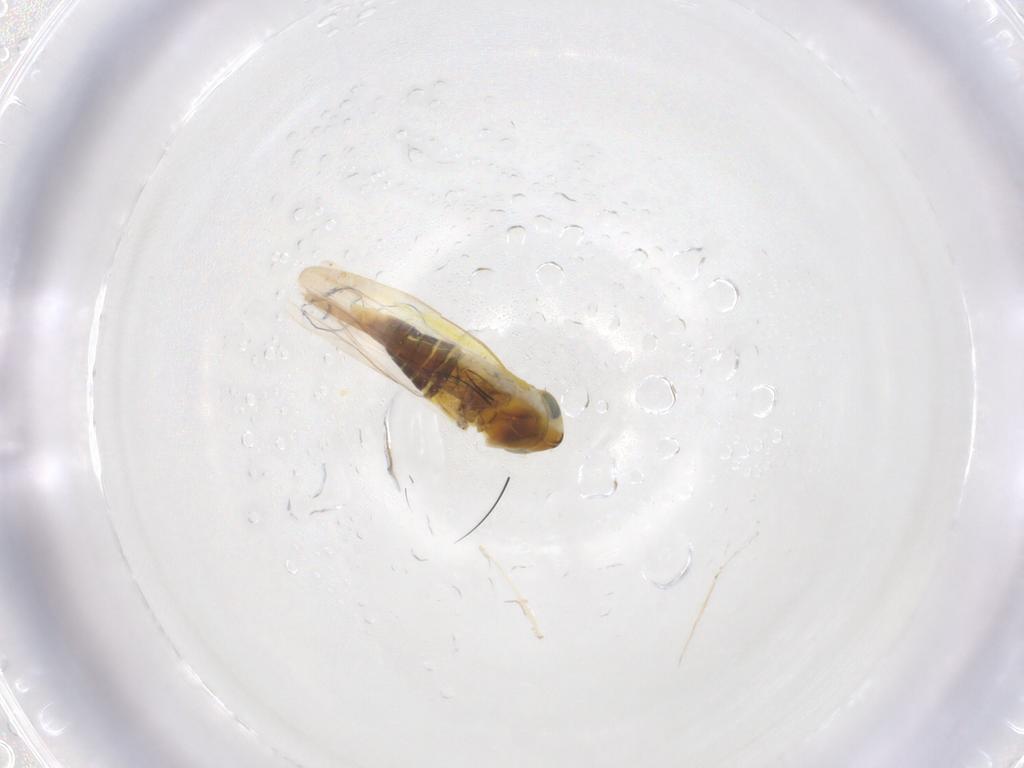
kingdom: Animalia
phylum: Arthropoda
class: Insecta
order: Hemiptera
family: Cicadellidae
